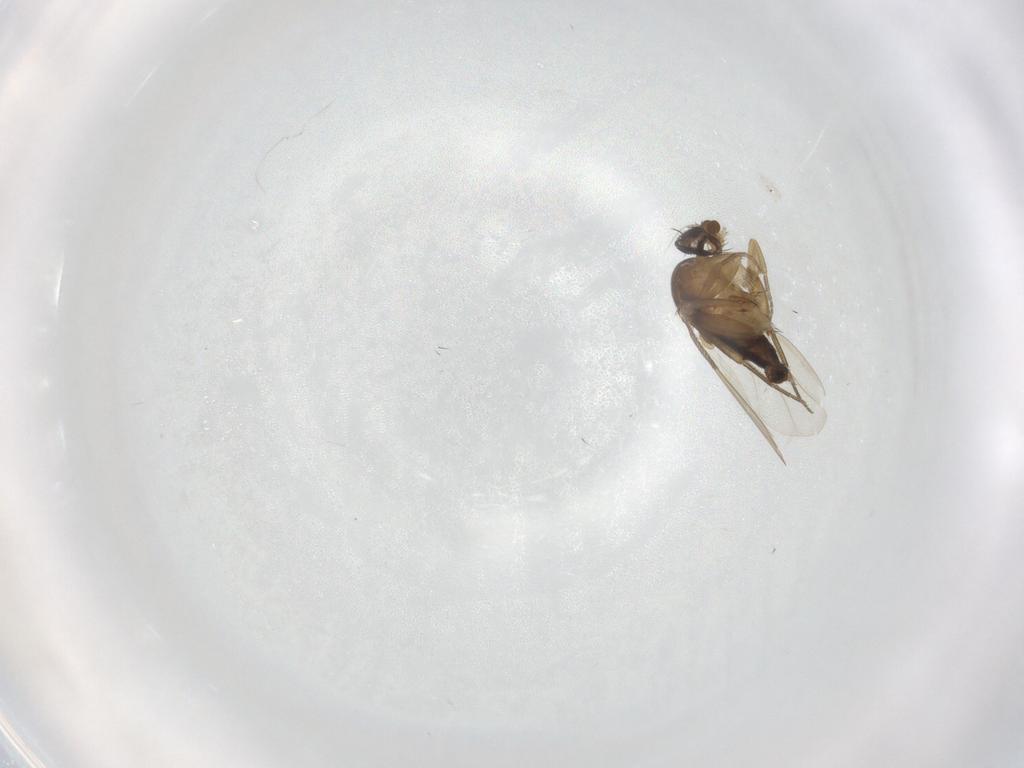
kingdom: Animalia
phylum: Arthropoda
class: Insecta
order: Diptera
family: Phoridae
